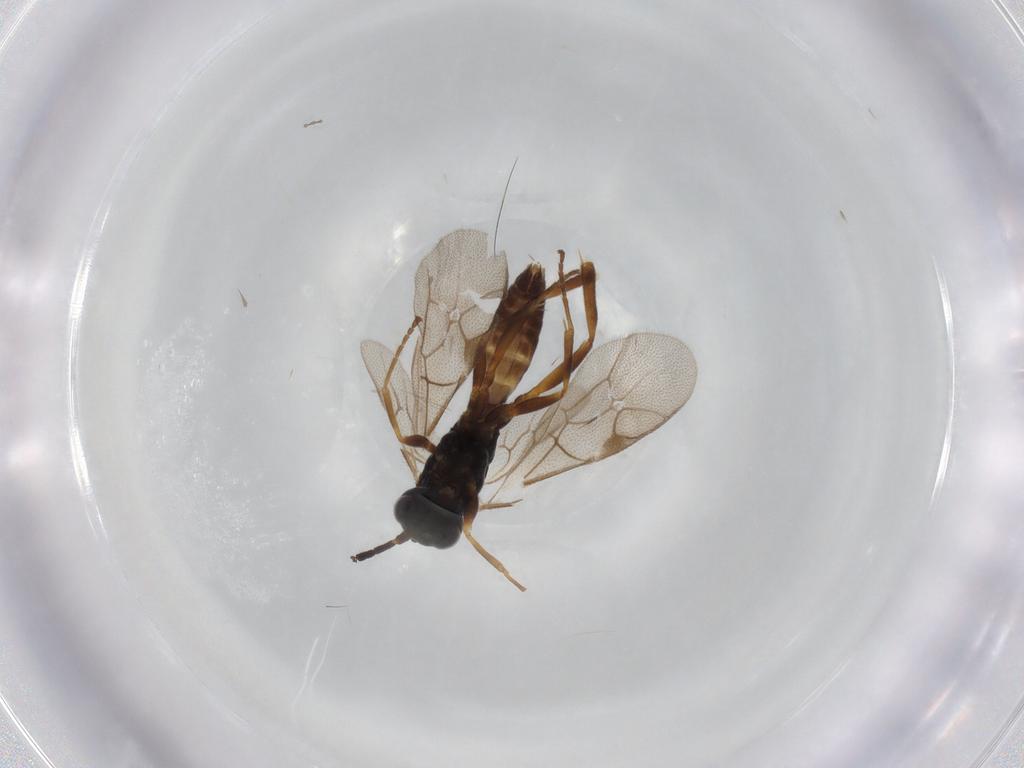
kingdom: Animalia
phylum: Arthropoda
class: Insecta
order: Hymenoptera
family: Ichneumonidae
